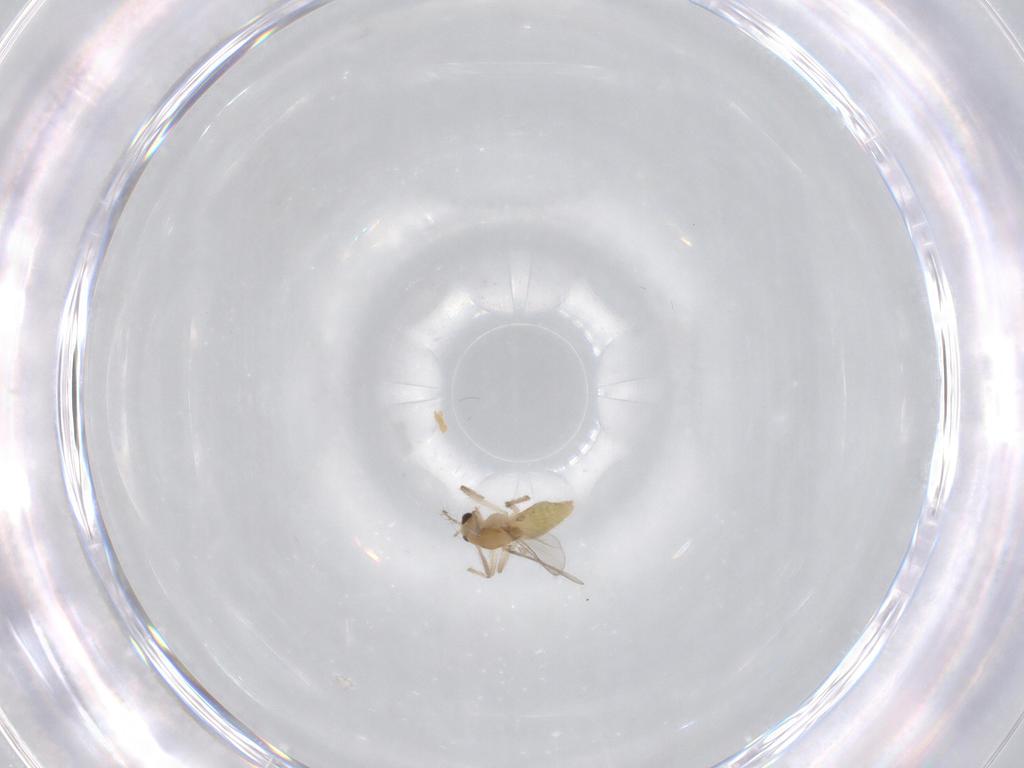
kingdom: Animalia
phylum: Arthropoda
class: Insecta
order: Diptera
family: Chironomidae
